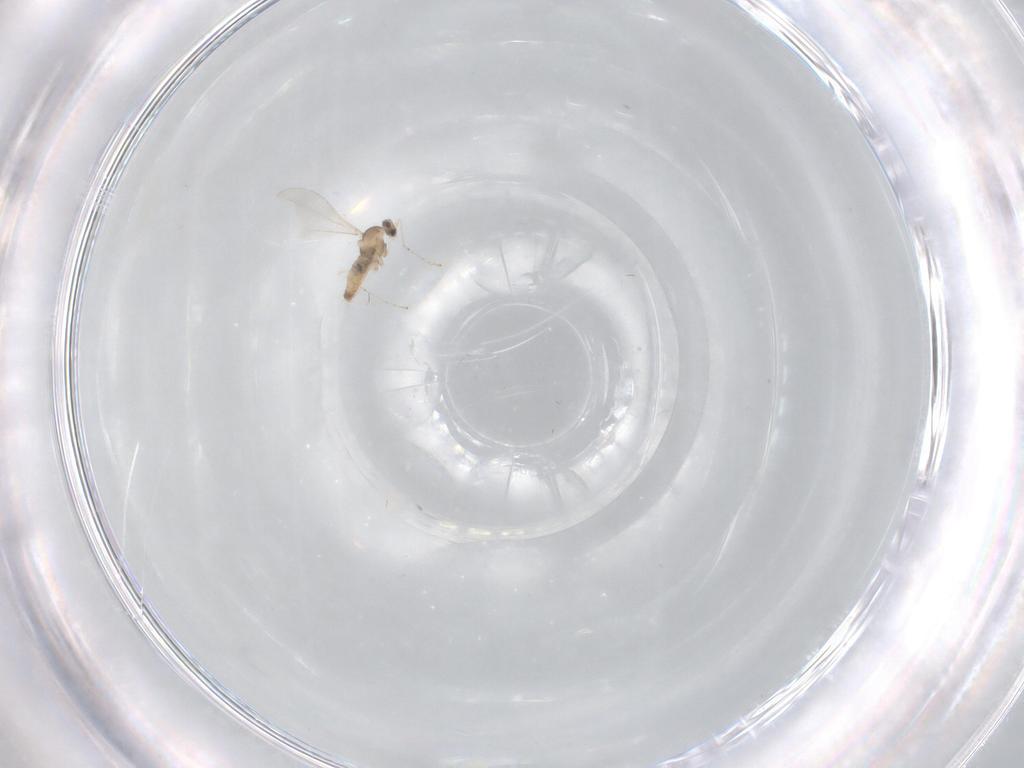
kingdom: Animalia
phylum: Arthropoda
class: Insecta
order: Diptera
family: Cecidomyiidae
